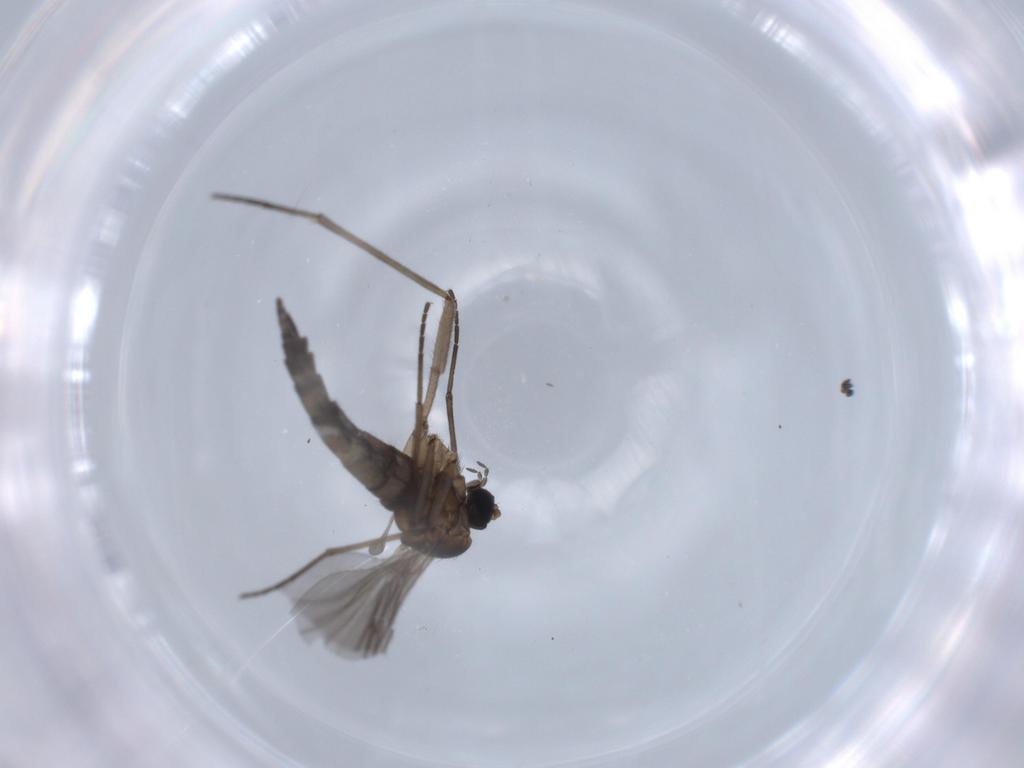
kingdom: Animalia
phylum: Arthropoda
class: Insecta
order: Diptera
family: Sciaridae
